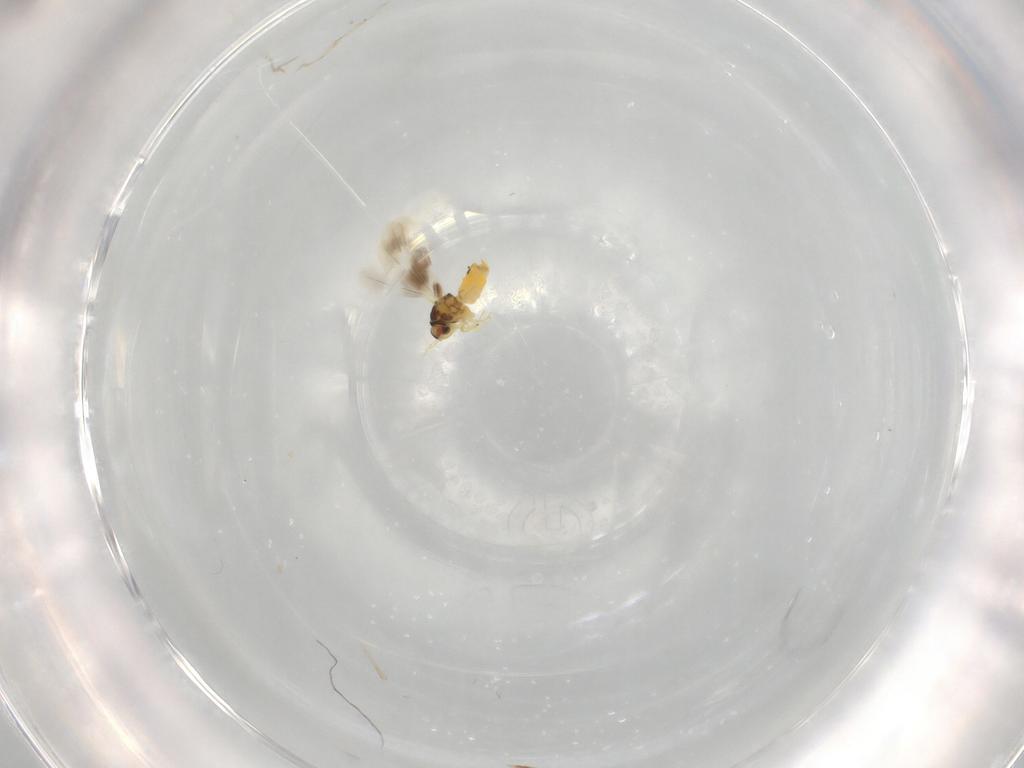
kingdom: Animalia
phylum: Arthropoda
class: Insecta
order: Hemiptera
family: Aleyrodidae
